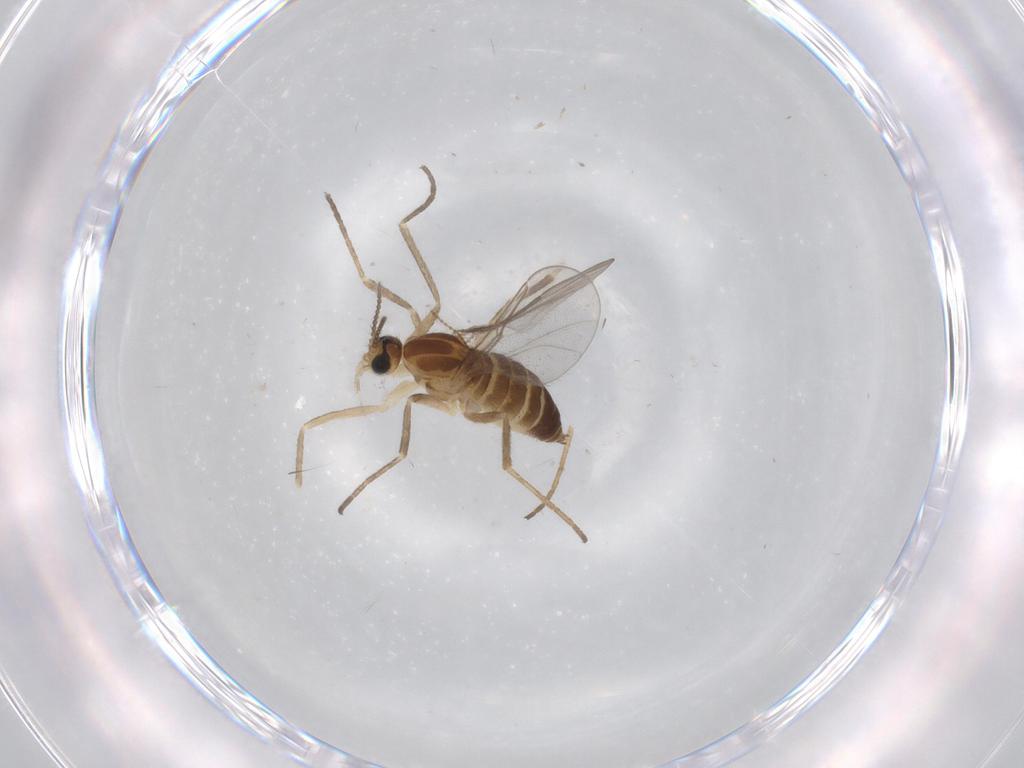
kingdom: Animalia
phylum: Arthropoda
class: Insecta
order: Diptera
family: Cecidomyiidae
